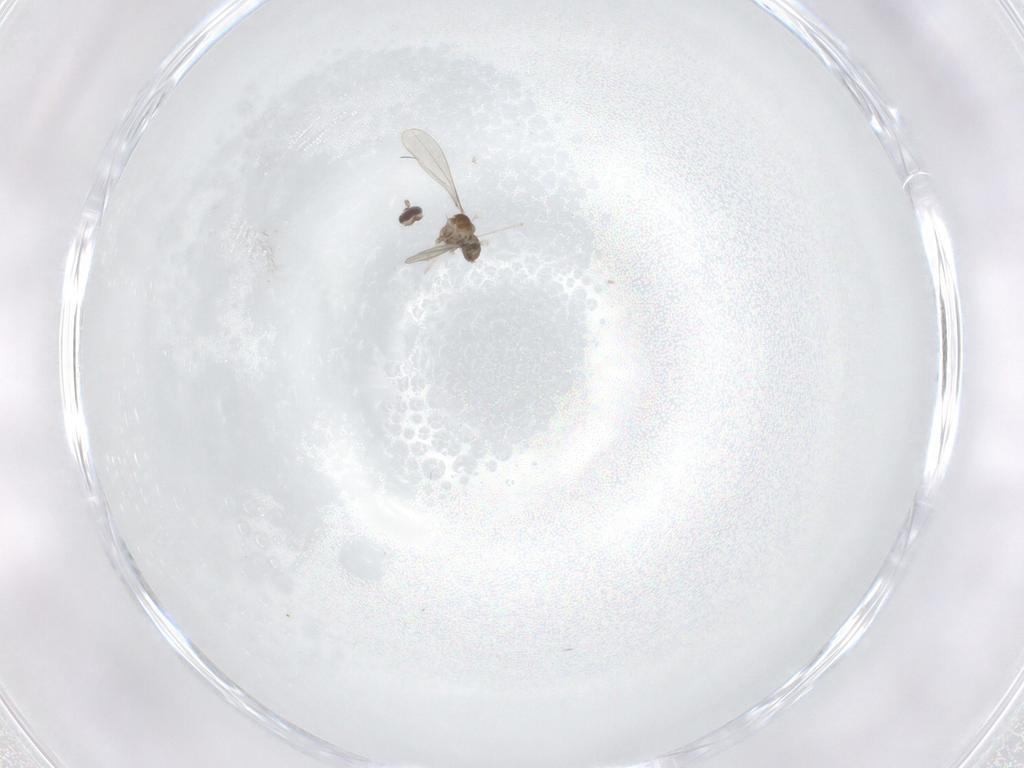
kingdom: Animalia
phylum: Arthropoda
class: Insecta
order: Diptera
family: Cecidomyiidae
